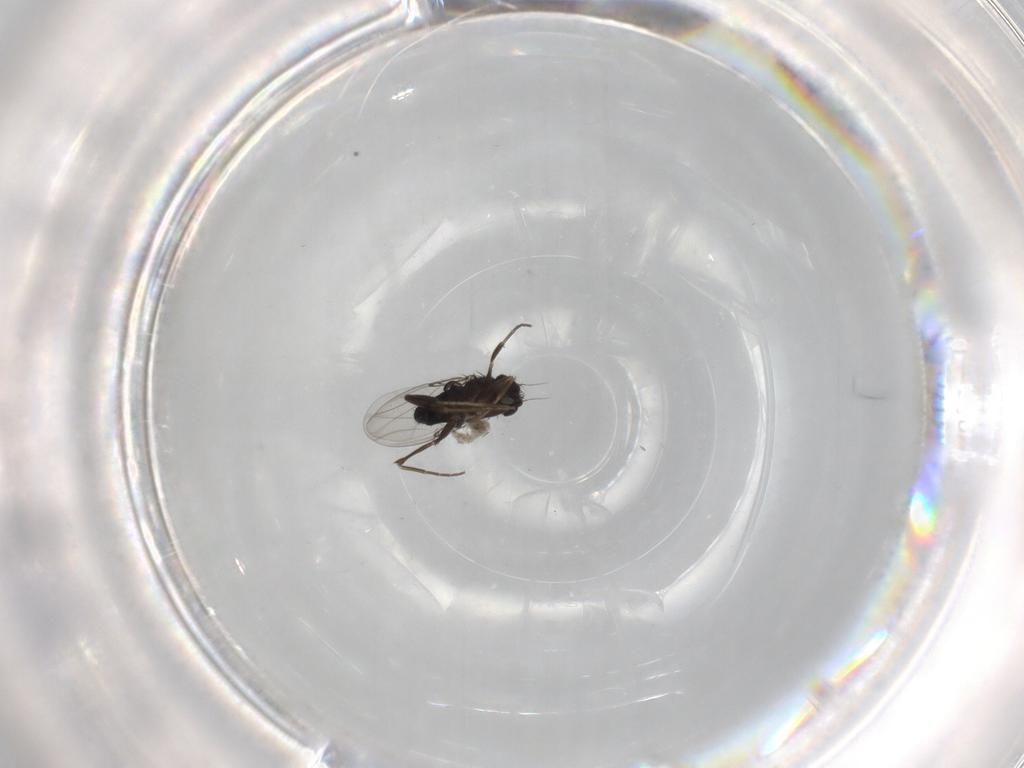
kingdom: Animalia
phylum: Arthropoda
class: Insecta
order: Diptera
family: Phoridae
